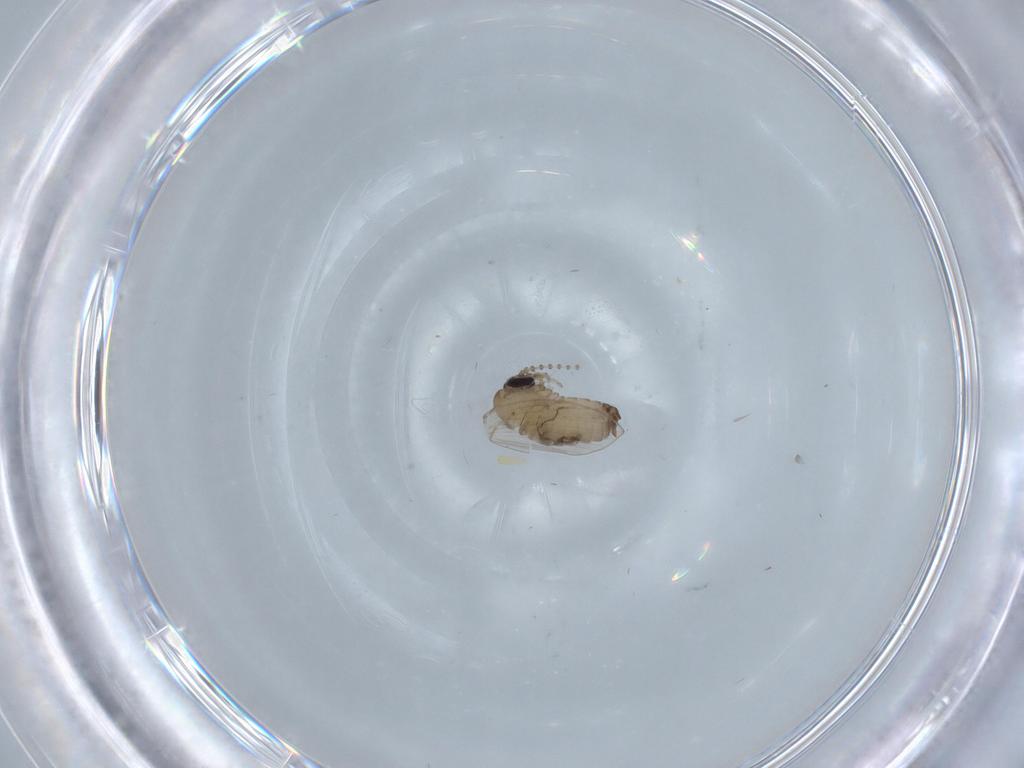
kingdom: Animalia
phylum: Arthropoda
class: Insecta
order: Diptera
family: Psychodidae
